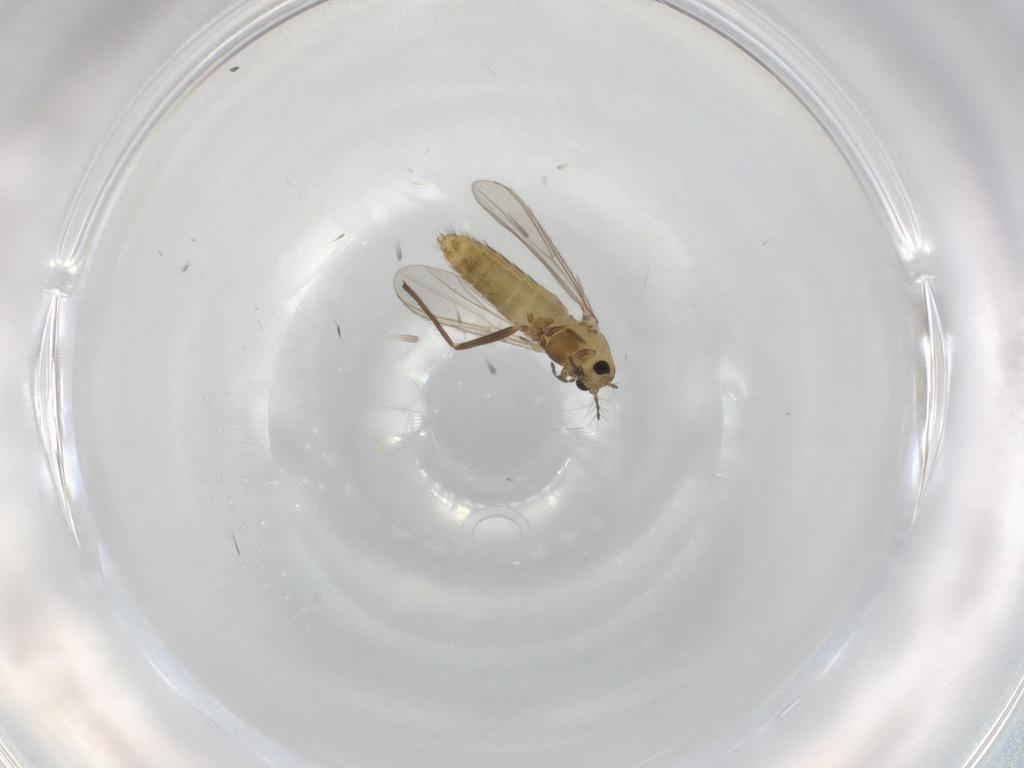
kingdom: Animalia
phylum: Arthropoda
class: Insecta
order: Diptera
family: Chironomidae
